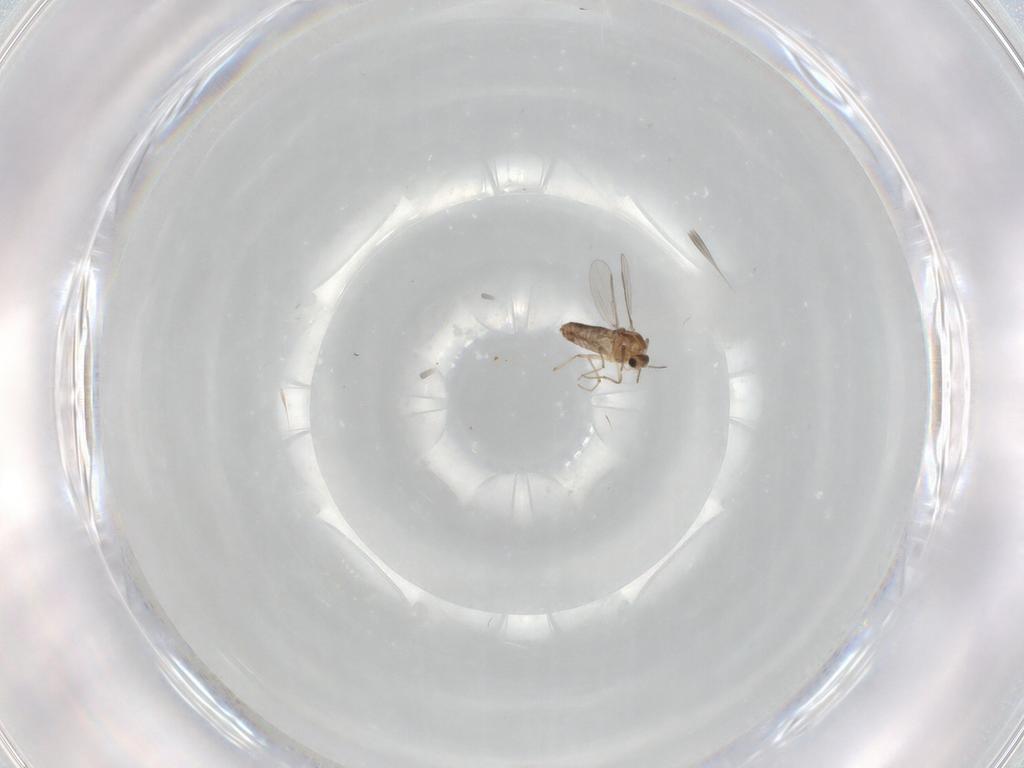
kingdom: Animalia
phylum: Arthropoda
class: Insecta
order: Diptera
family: Chironomidae
